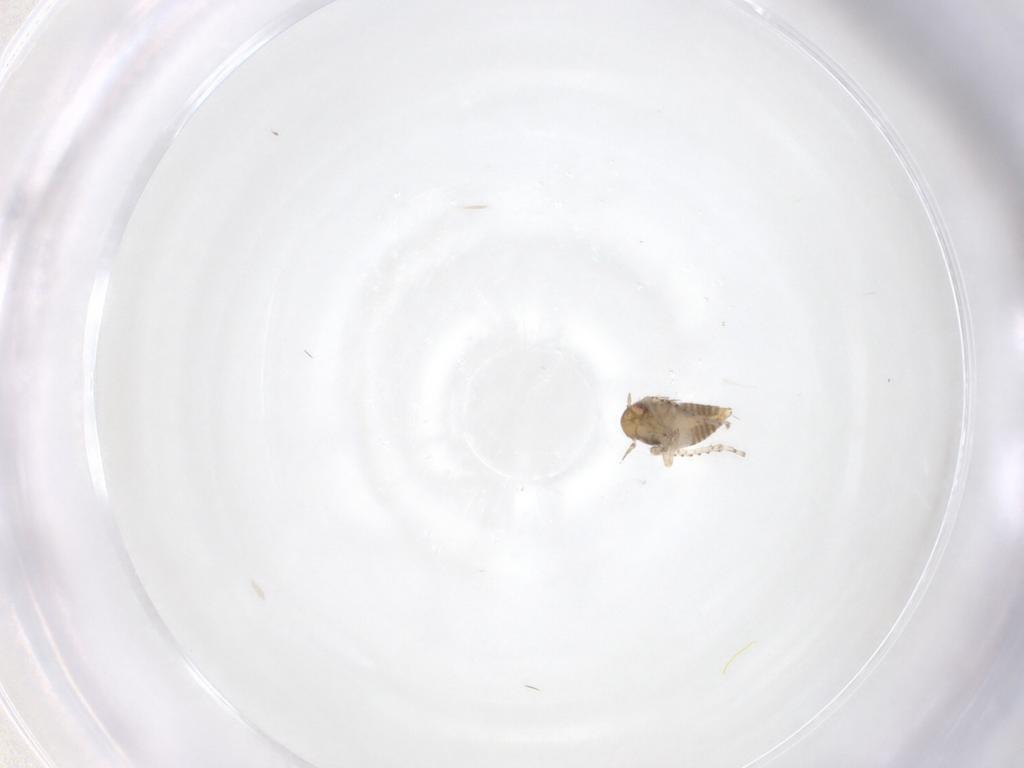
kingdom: Animalia
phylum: Arthropoda
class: Insecta
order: Hemiptera
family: Cicadellidae
